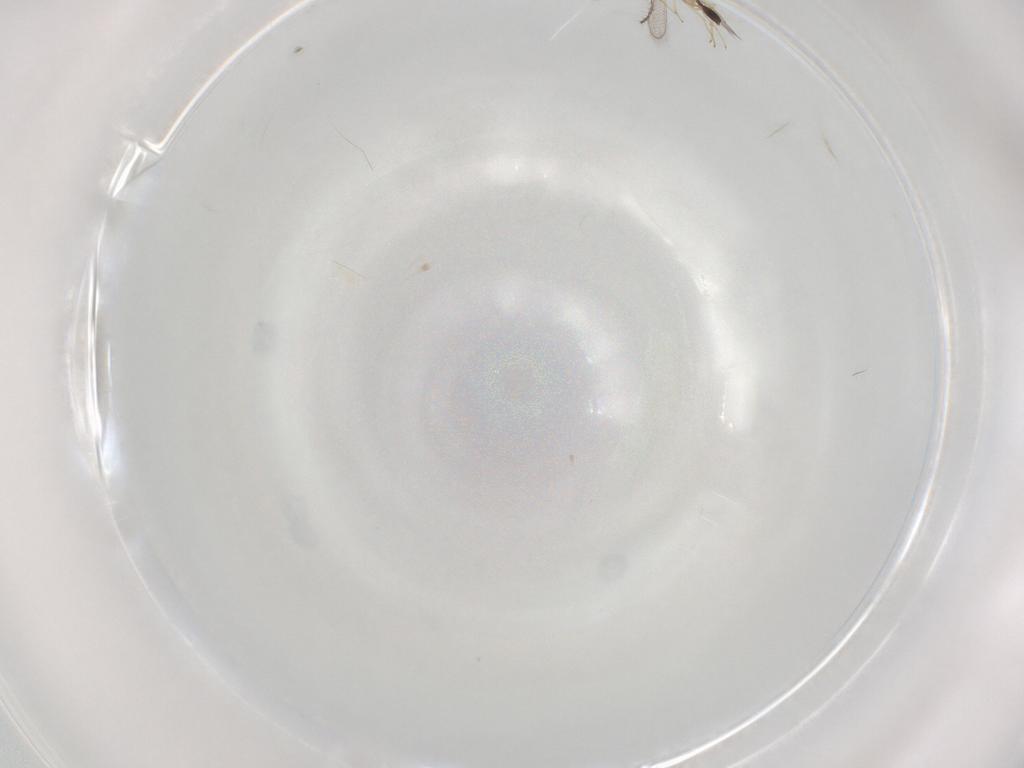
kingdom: Animalia
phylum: Arthropoda
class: Insecta
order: Hymenoptera
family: Diparidae
